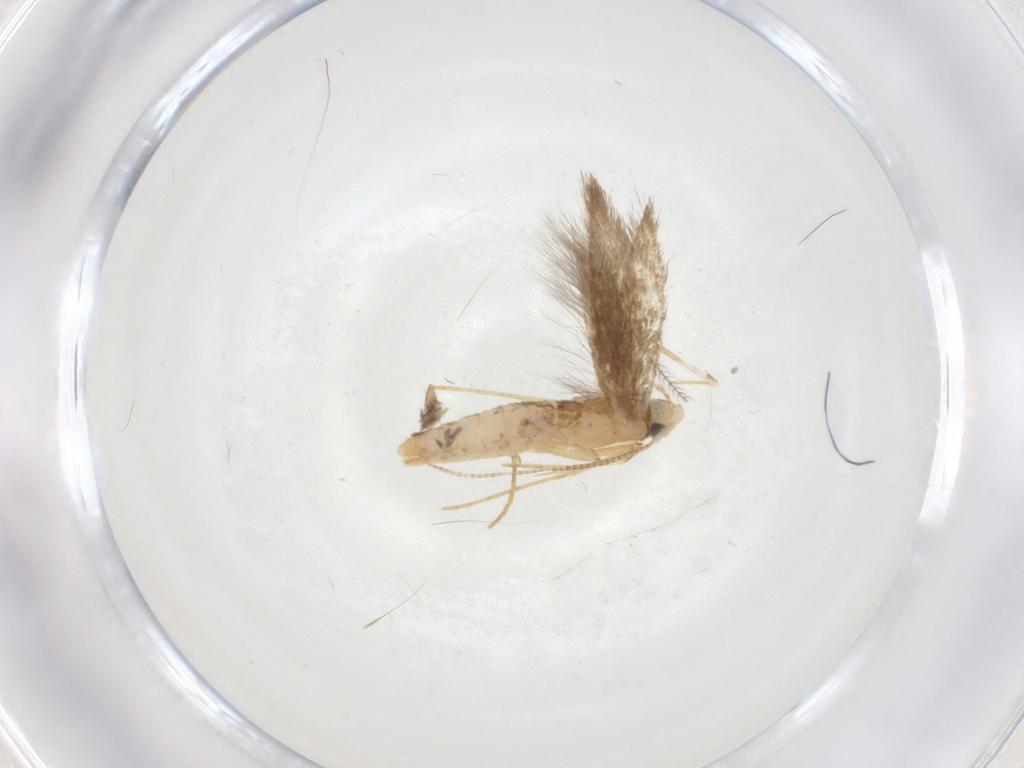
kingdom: Animalia
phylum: Arthropoda
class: Insecta
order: Lepidoptera
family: Psychidae
